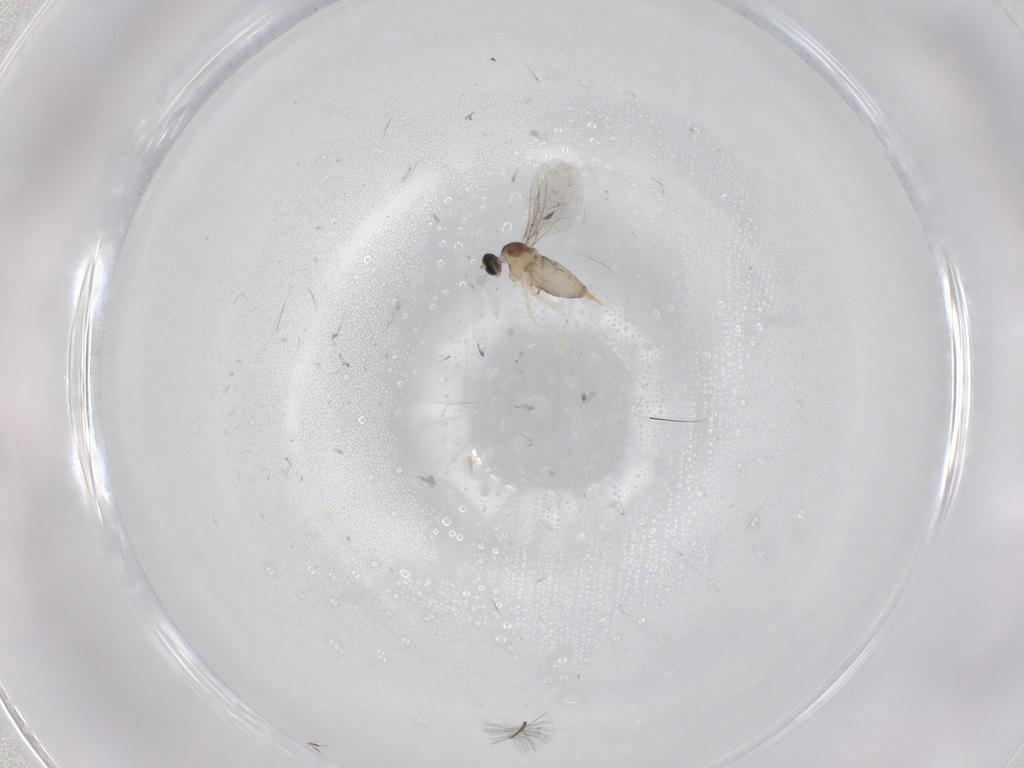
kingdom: Animalia
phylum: Arthropoda
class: Insecta
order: Diptera
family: Cecidomyiidae
